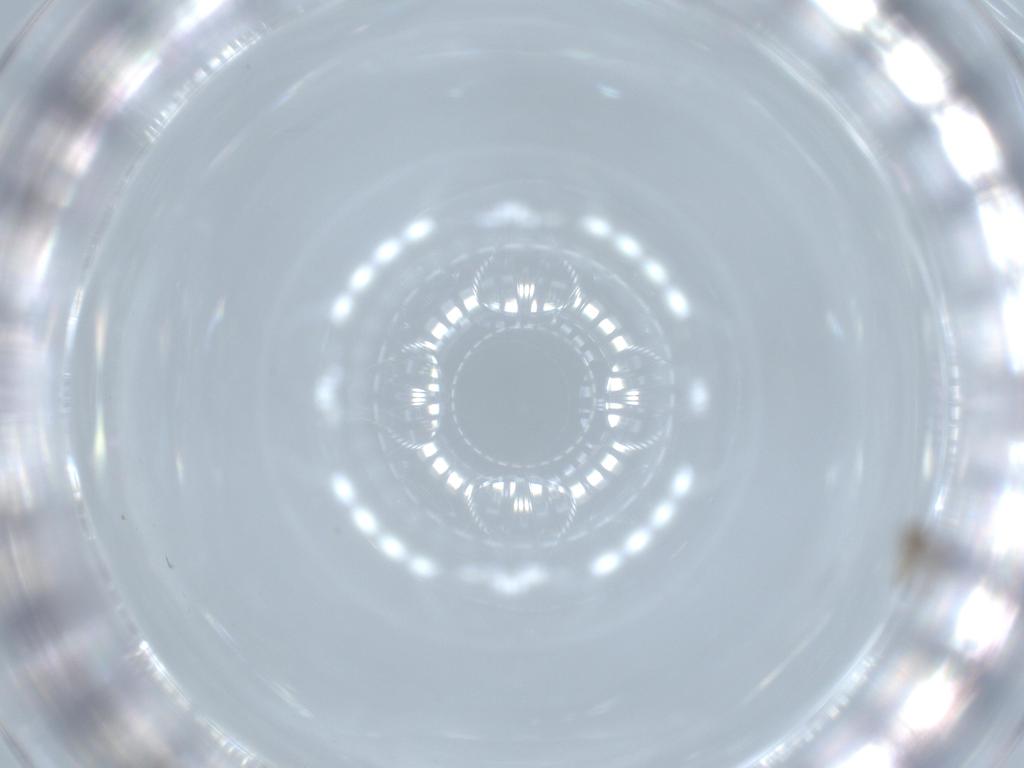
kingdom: Animalia
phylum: Arthropoda
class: Insecta
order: Diptera
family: Cecidomyiidae
